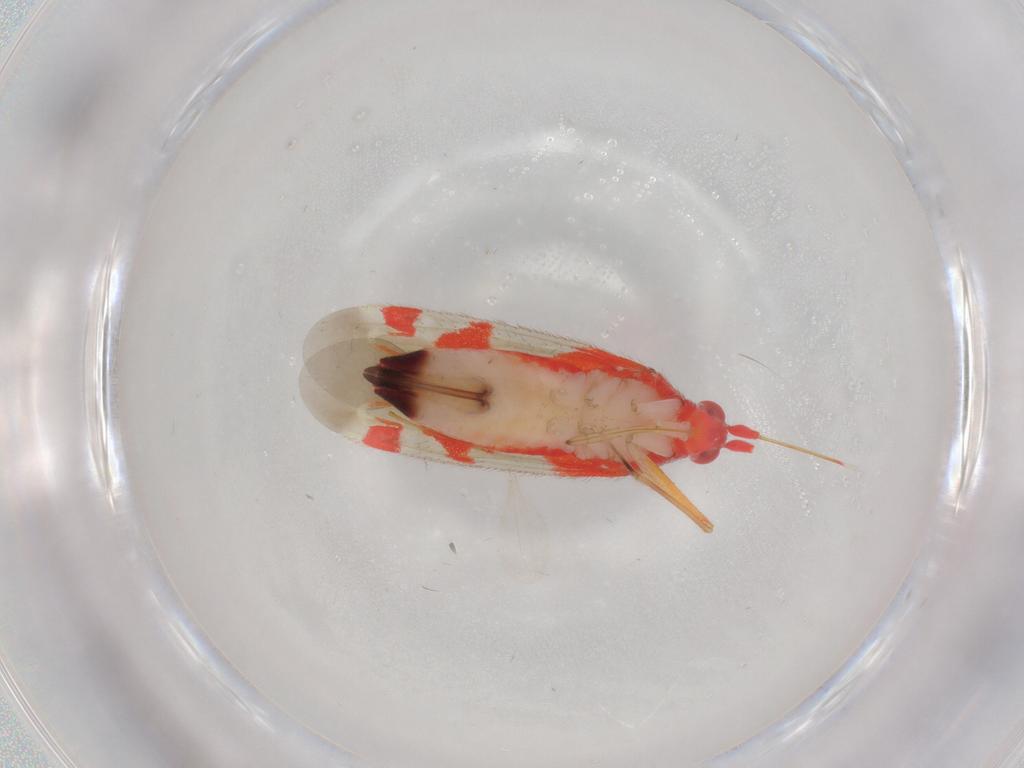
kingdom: Animalia
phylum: Arthropoda
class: Insecta
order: Hemiptera
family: Miridae
